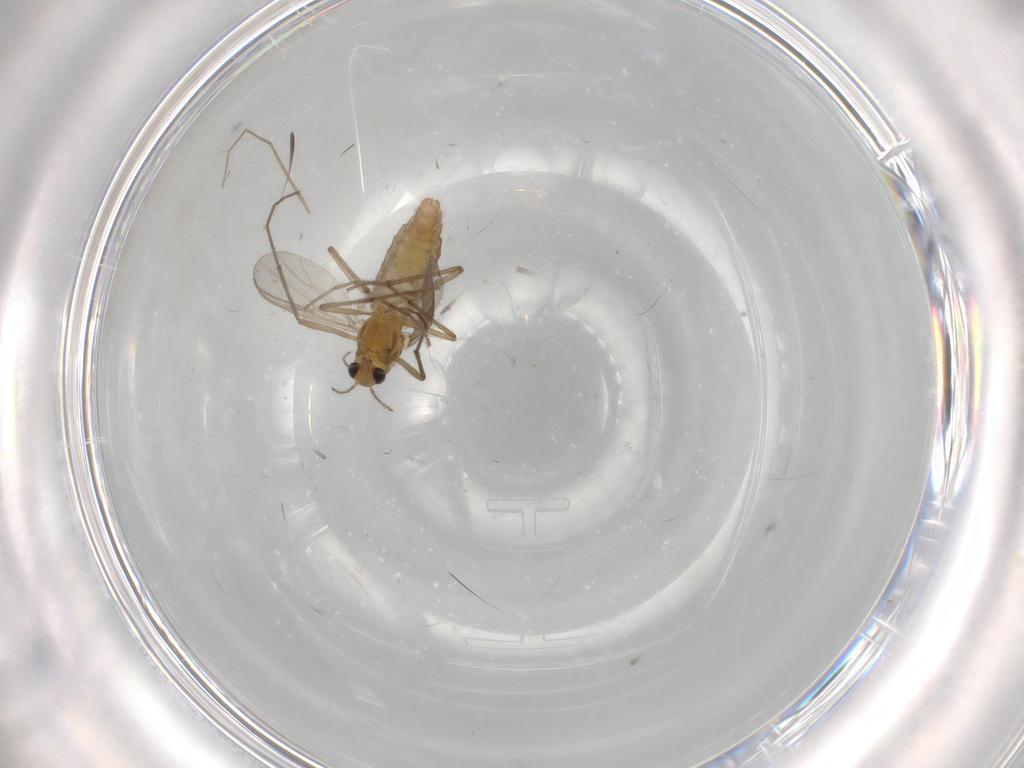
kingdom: Animalia
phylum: Arthropoda
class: Insecta
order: Diptera
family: Chironomidae
